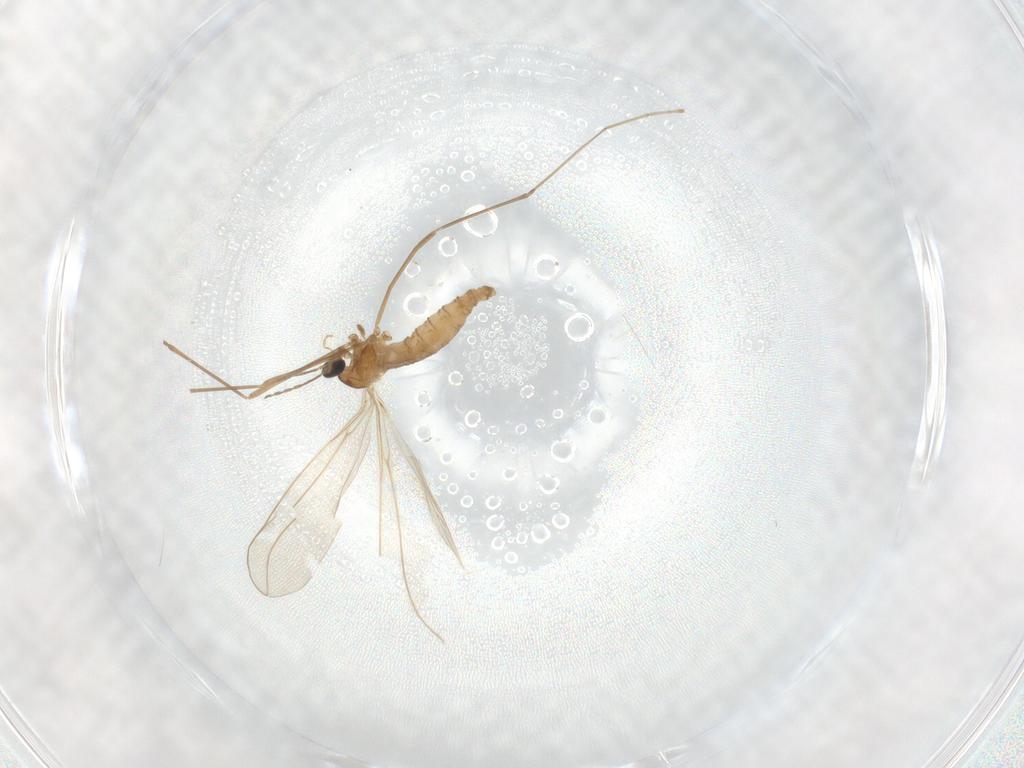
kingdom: Animalia
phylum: Arthropoda
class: Insecta
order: Diptera
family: Cecidomyiidae
